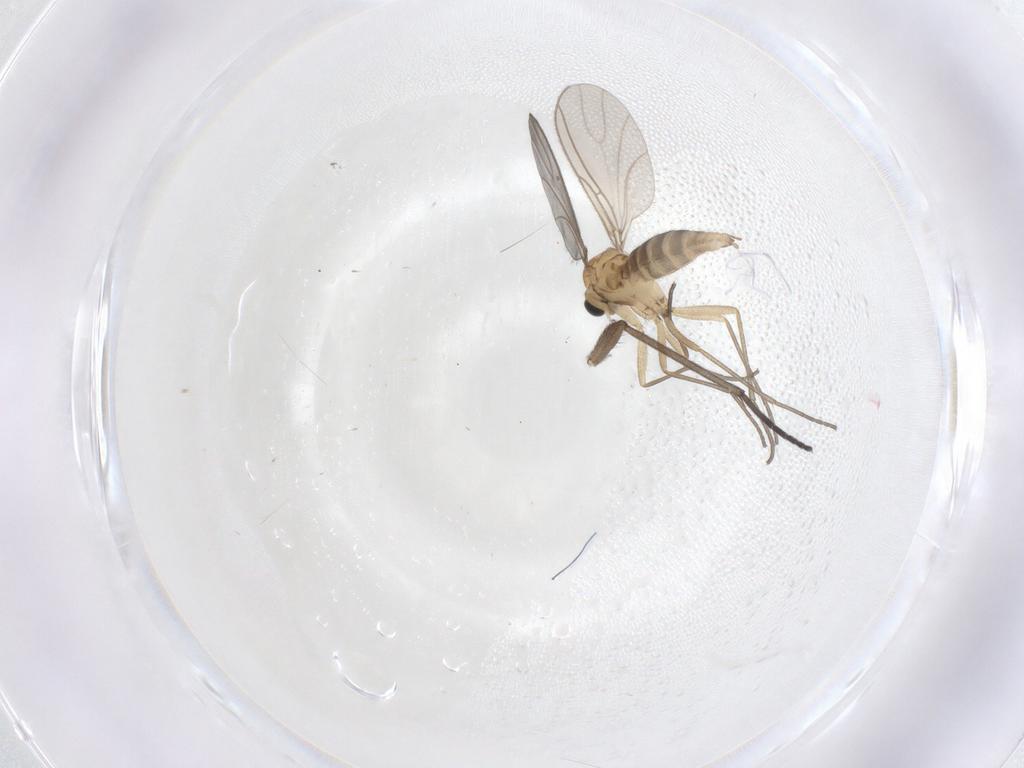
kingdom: Animalia
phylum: Arthropoda
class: Insecta
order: Diptera
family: Sciaridae
